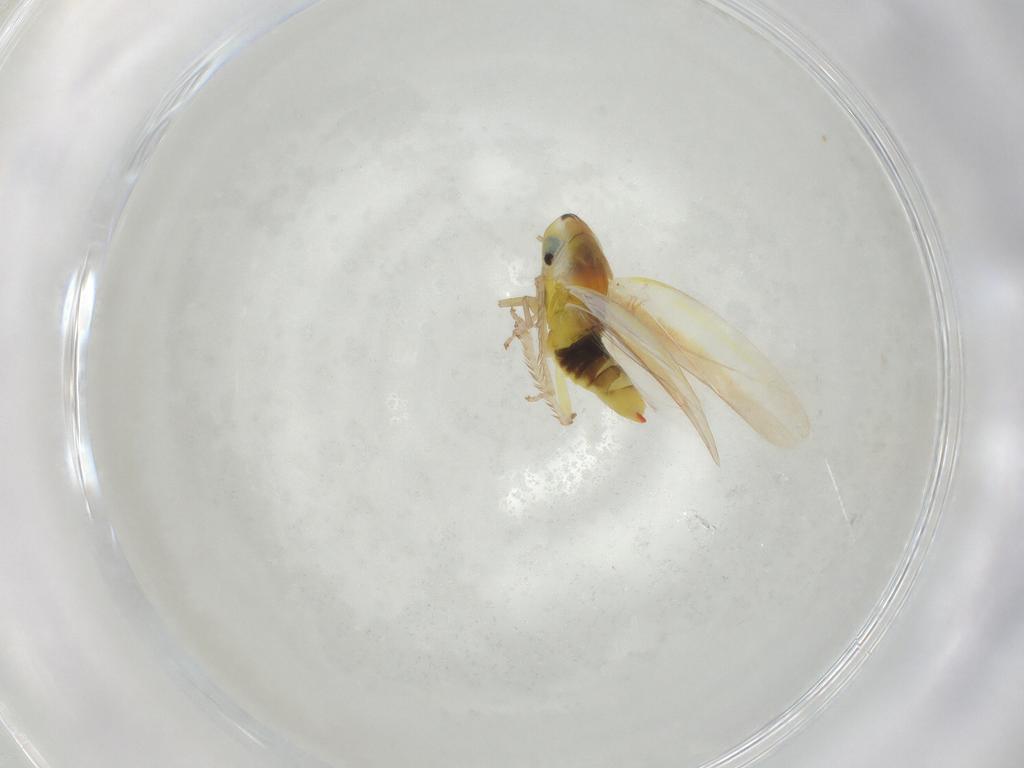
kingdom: Animalia
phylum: Arthropoda
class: Insecta
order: Hemiptera
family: Cicadellidae
